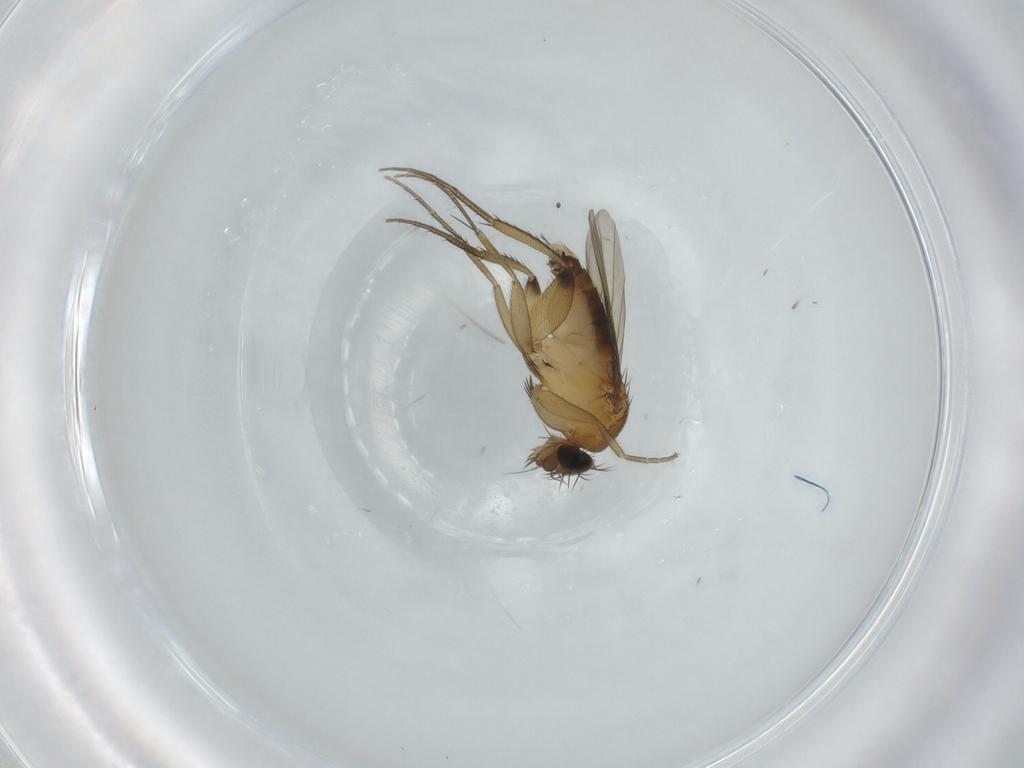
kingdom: Animalia
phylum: Arthropoda
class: Insecta
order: Diptera
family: Phoridae
